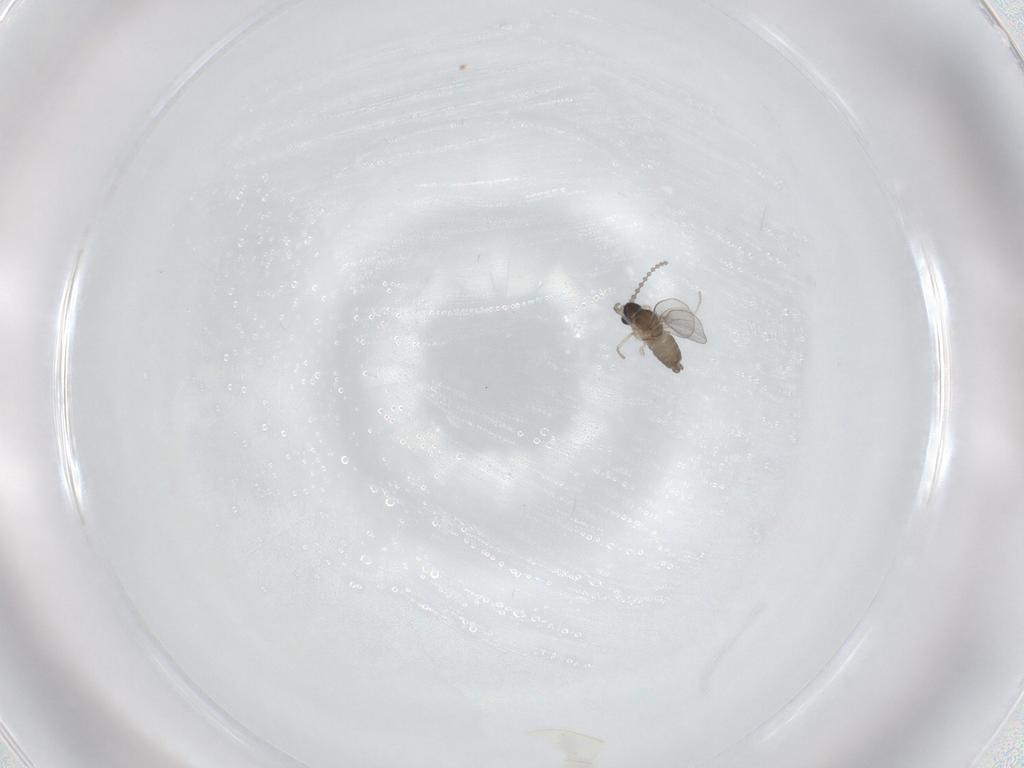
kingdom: Animalia
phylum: Arthropoda
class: Insecta
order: Diptera
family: Cecidomyiidae
